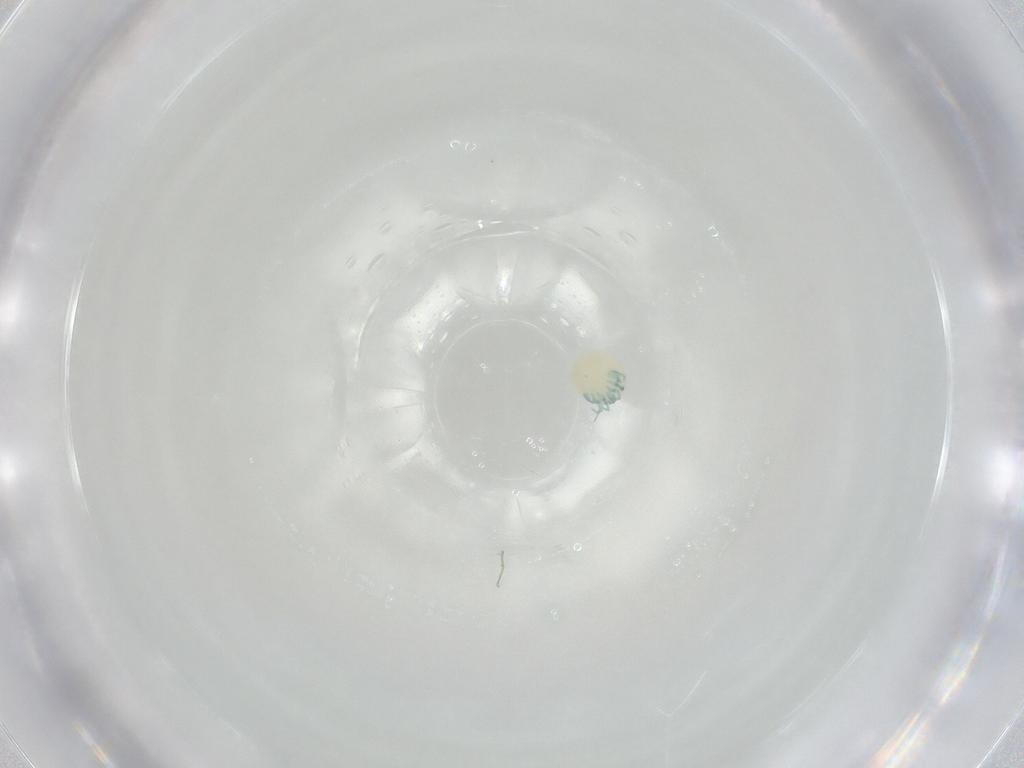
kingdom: Animalia
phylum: Arthropoda
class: Arachnida
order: Trombidiformes
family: Arrenuridae
